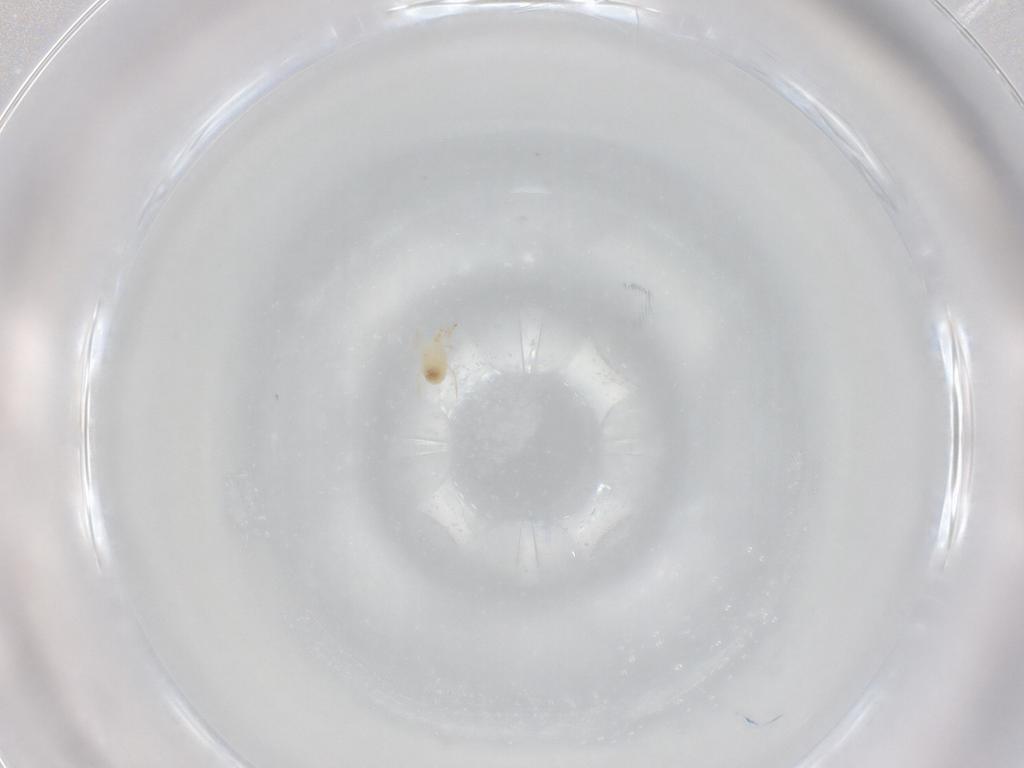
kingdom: Animalia
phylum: Arthropoda
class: Arachnida
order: Mesostigmata
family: Phytoseiidae
